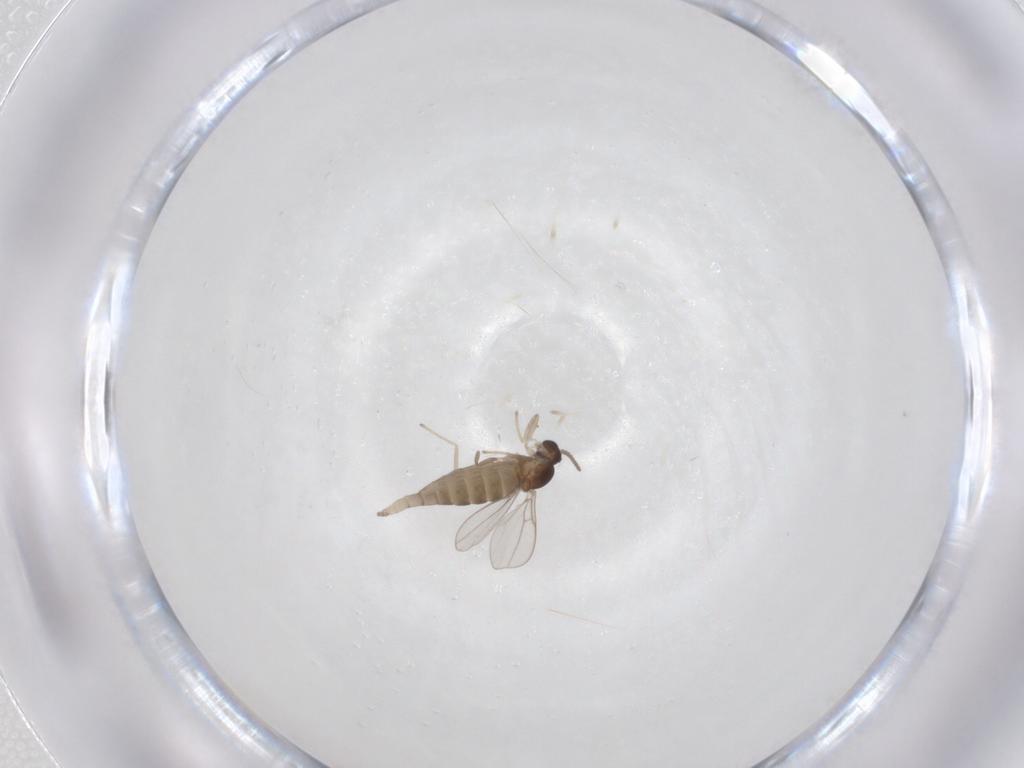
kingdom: Animalia
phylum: Arthropoda
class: Insecta
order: Diptera
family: Cecidomyiidae
